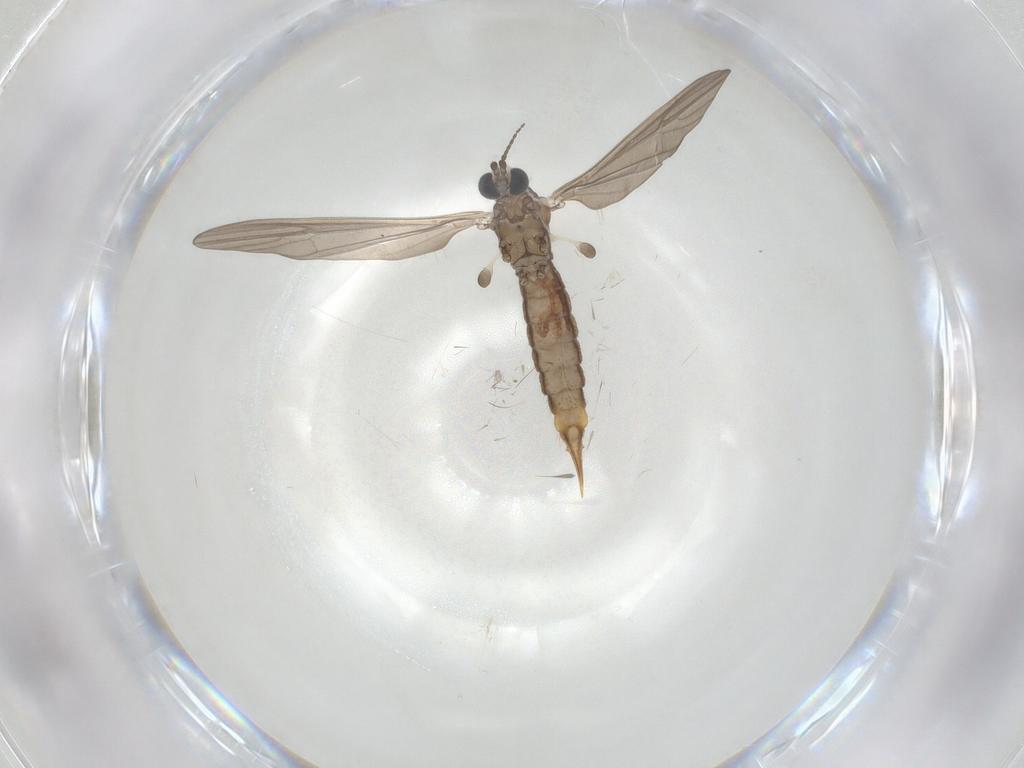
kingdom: Animalia
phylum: Arthropoda
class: Insecta
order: Diptera
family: Limoniidae
